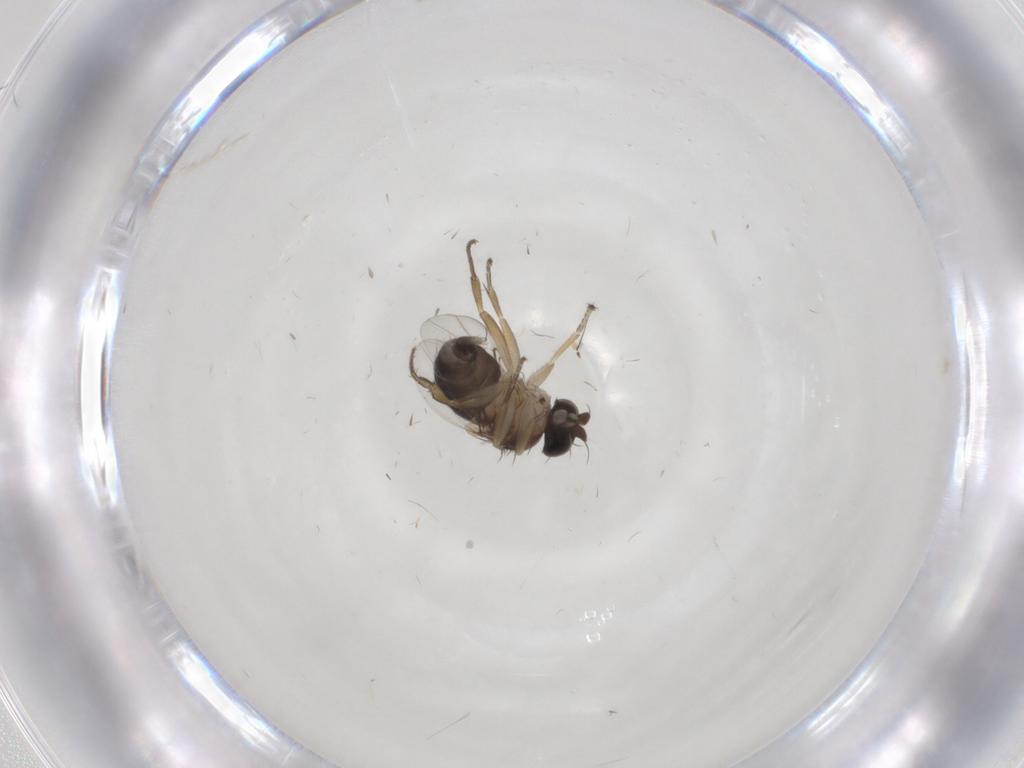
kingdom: Animalia
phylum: Arthropoda
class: Insecta
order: Diptera
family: Phoridae
